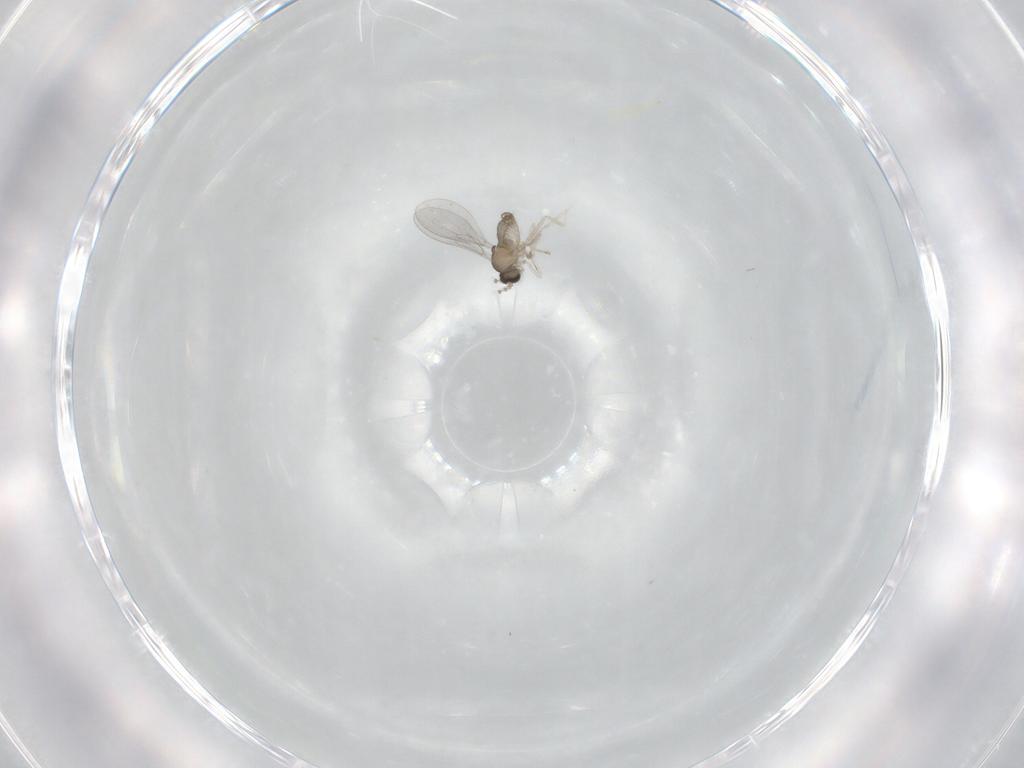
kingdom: Animalia
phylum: Arthropoda
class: Insecta
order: Diptera
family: Cecidomyiidae
